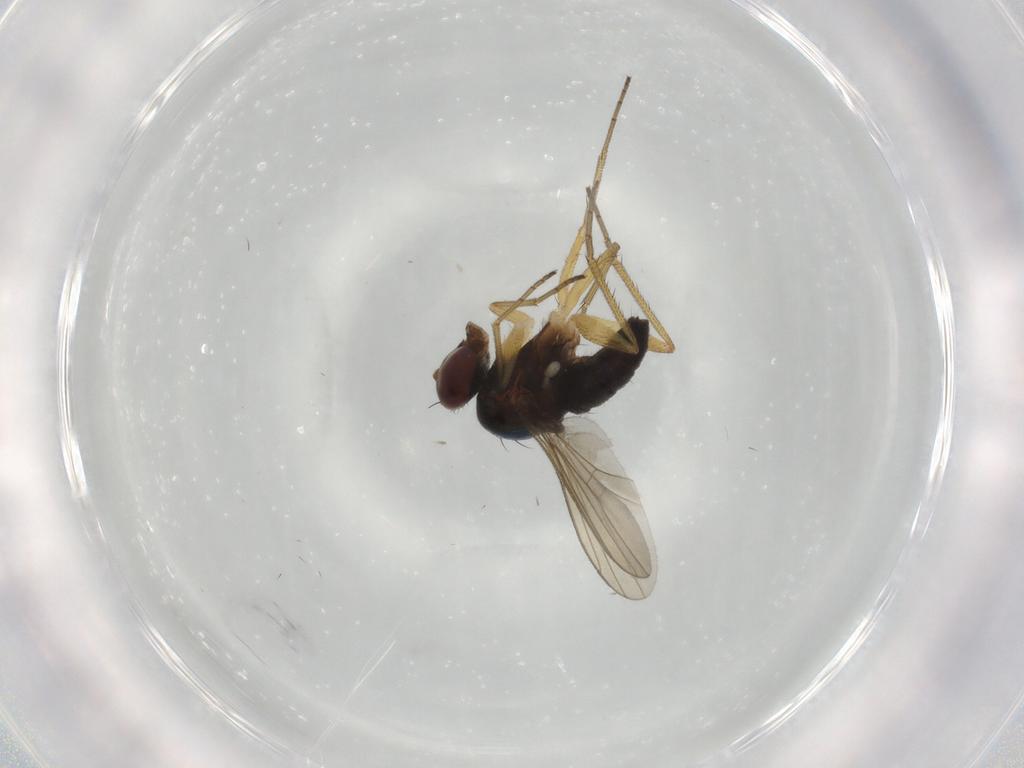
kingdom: Animalia
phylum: Arthropoda
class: Insecta
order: Diptera
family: Dolichopodidae
